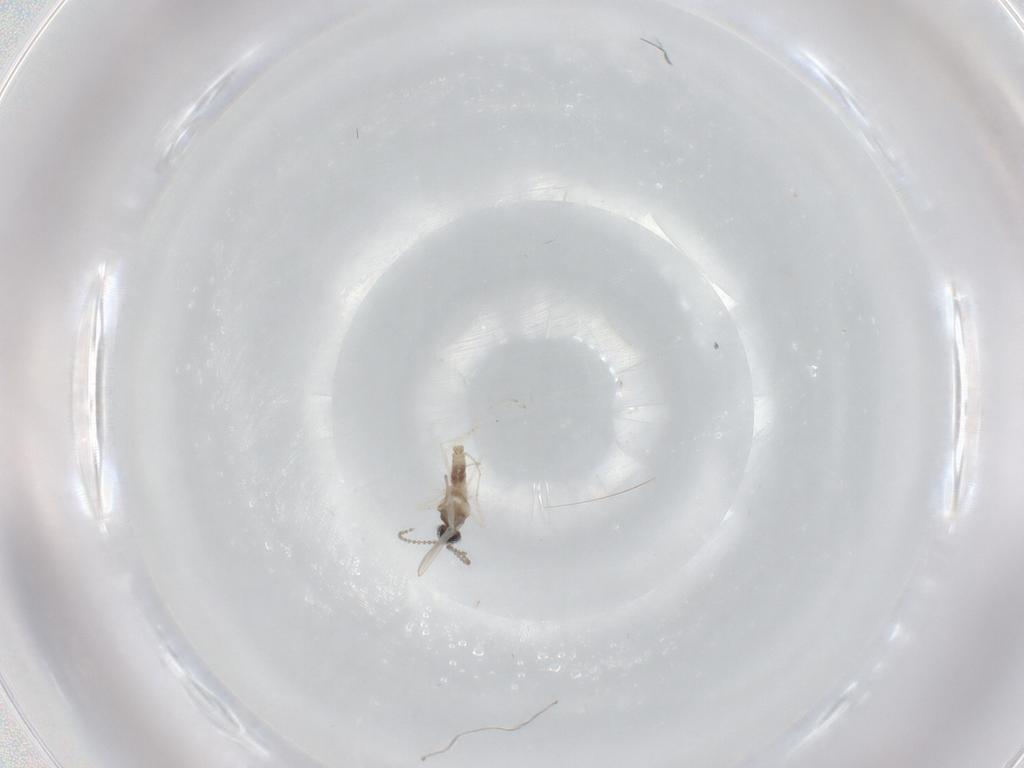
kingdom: Animalia
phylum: Arthropoda
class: Insecta
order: Diptera
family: Cecidomyiidae
